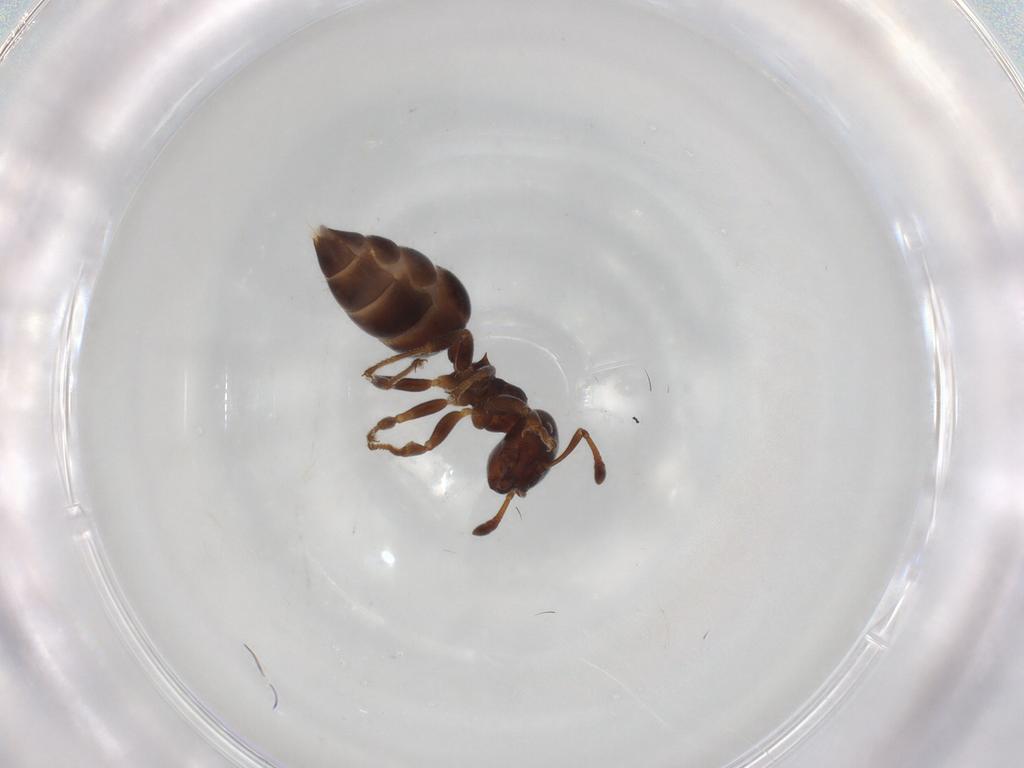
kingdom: Animalia
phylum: Arthropoda
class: Insecta
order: Hymenoptera
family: Formicidae
